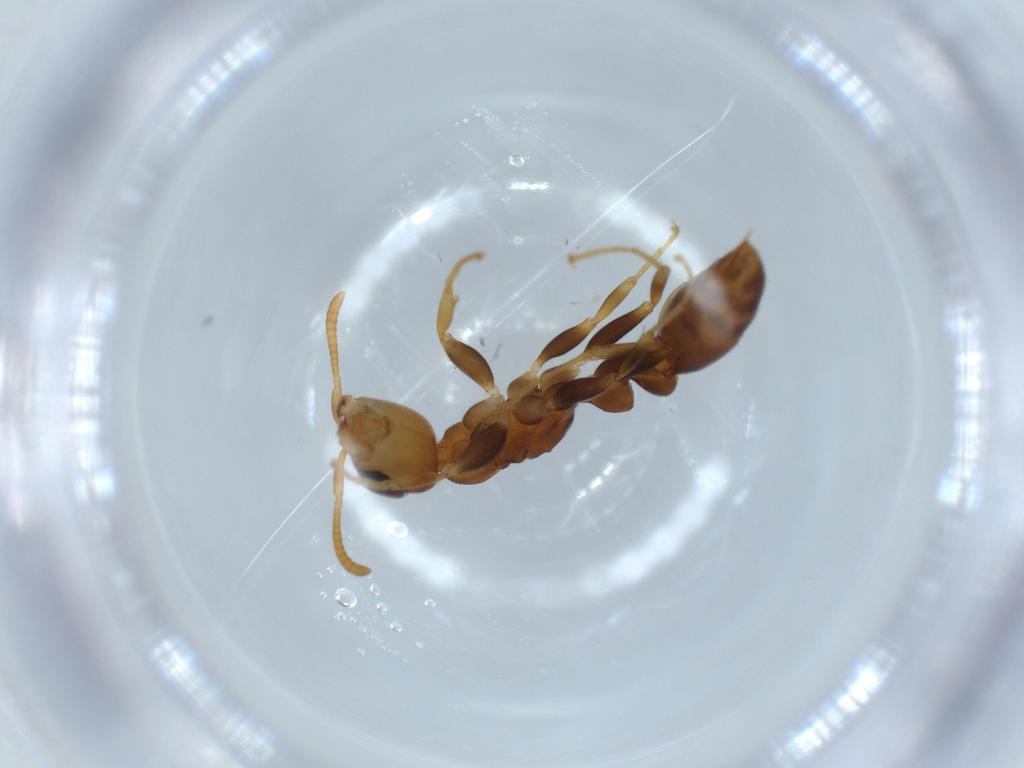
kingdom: Animalia
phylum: Arthropoda
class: Insecta
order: Hymenoptera
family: Formicidae
